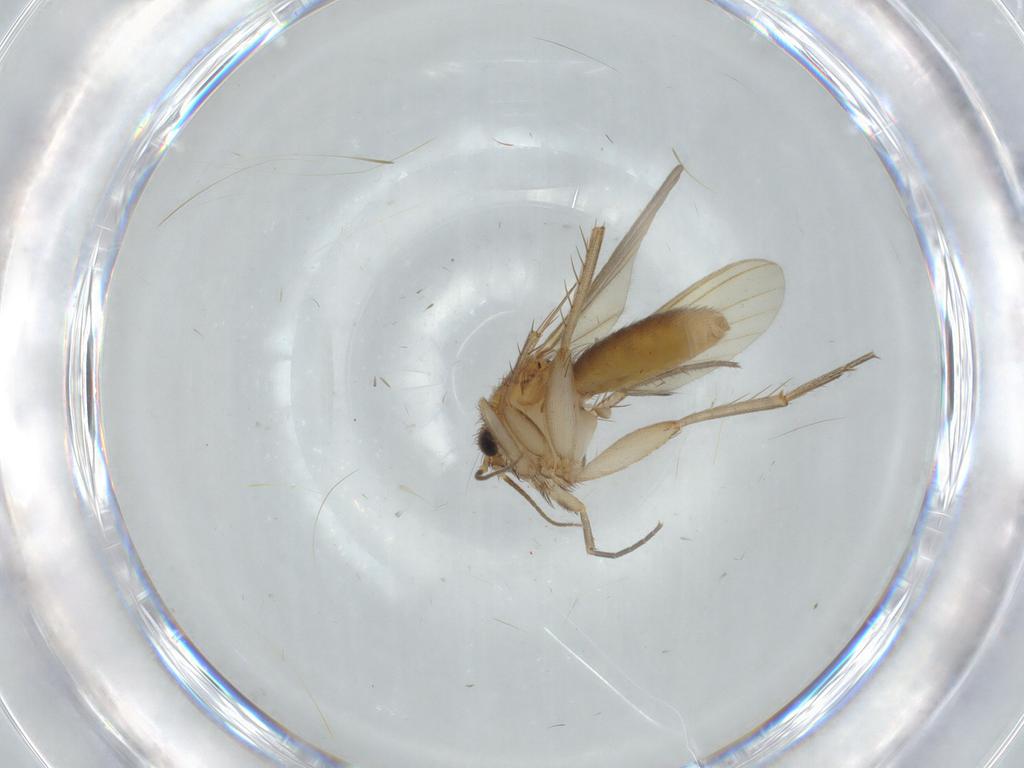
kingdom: Animalia
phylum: Arthropoda
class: Insecta
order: Diptera
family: Mycetophilidae
